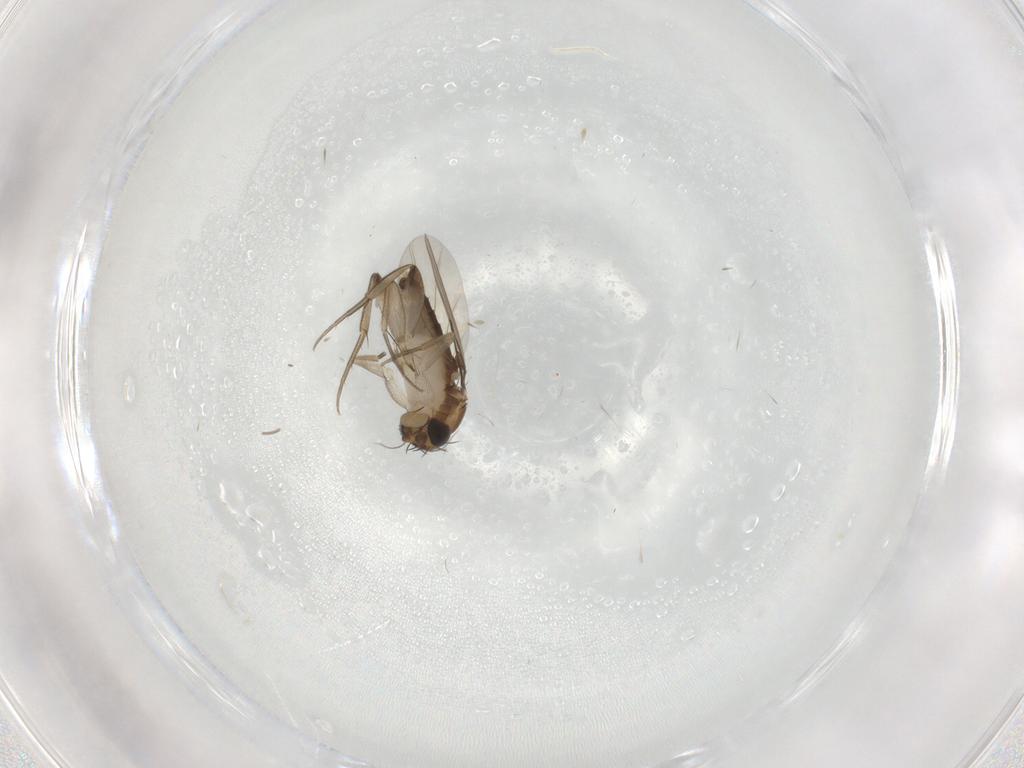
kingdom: Animalia
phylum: Arthropoda
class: Insecta
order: Diptera
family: Phoridae
